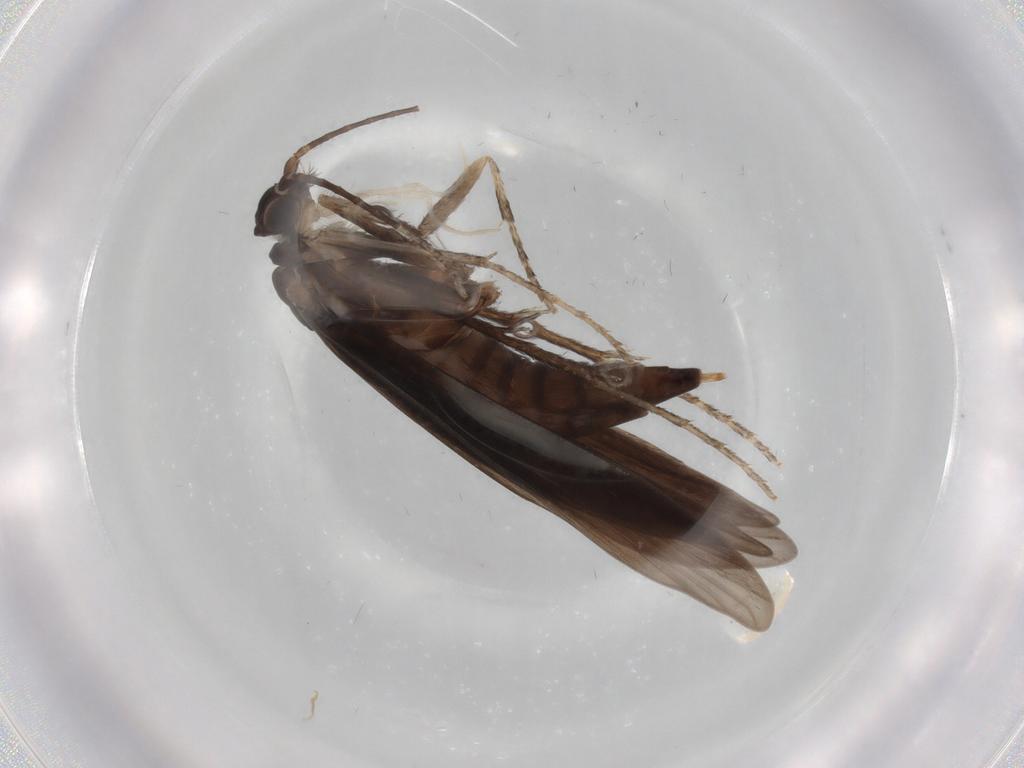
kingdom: Animalia
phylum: Arthropoda
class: Insecta
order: Trichoptera
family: Xiphocentronidae
